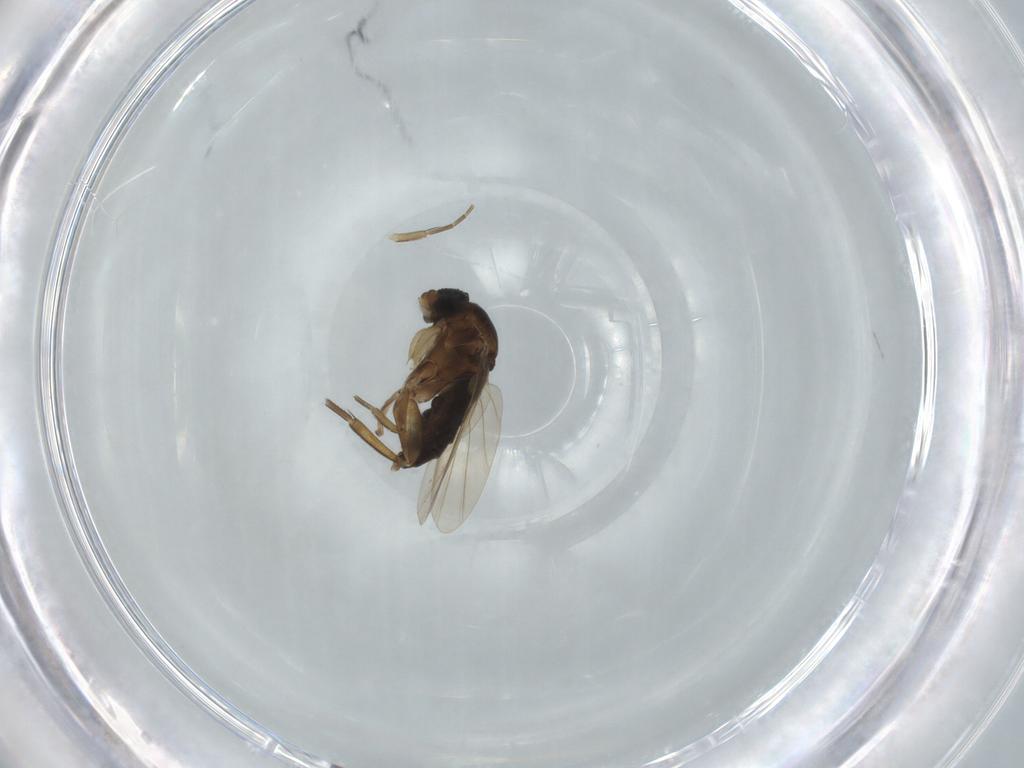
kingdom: Animalia
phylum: Arthropoda
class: Insecta
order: Diptera
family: Phoridae
